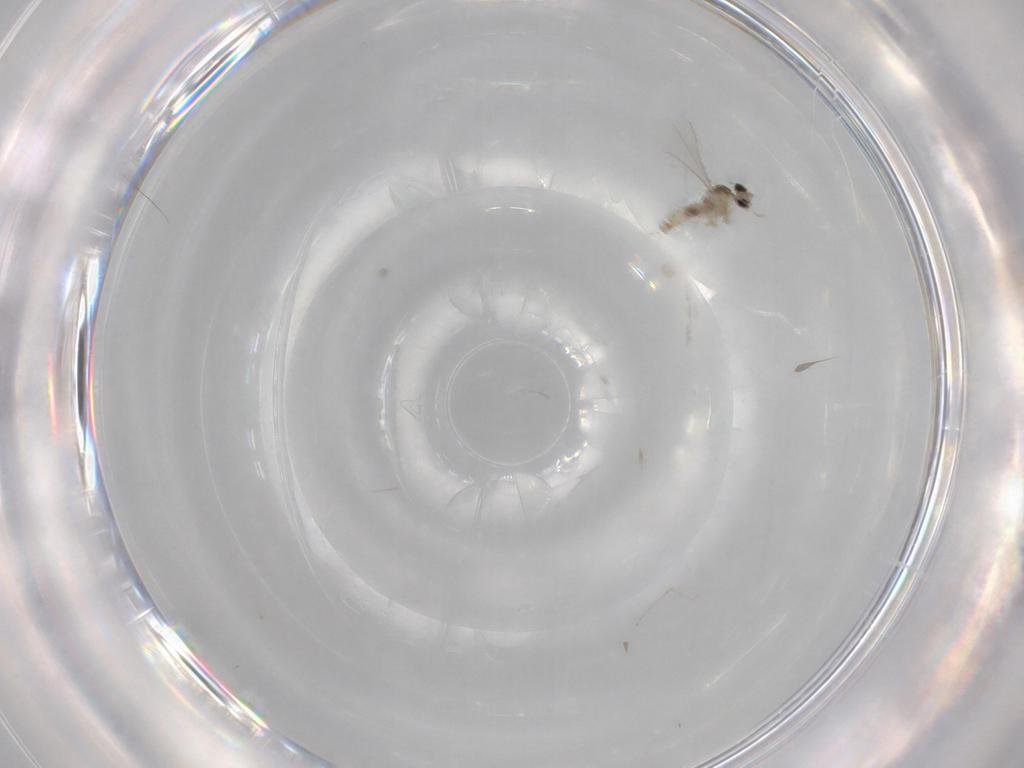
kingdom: Animalia
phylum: Arthropoda
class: Insecta
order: Diptera
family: Cecidomyiidae
